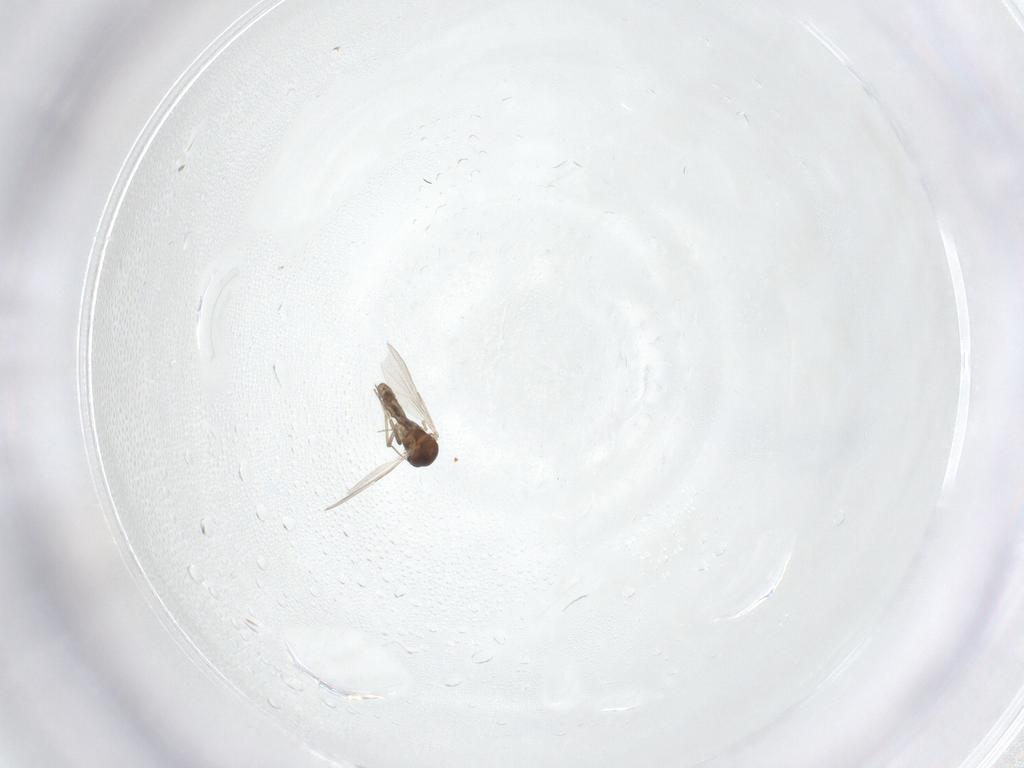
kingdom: Animalia
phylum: Arthropoda
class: Insecta
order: Diptera
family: Ceratopogonidae
